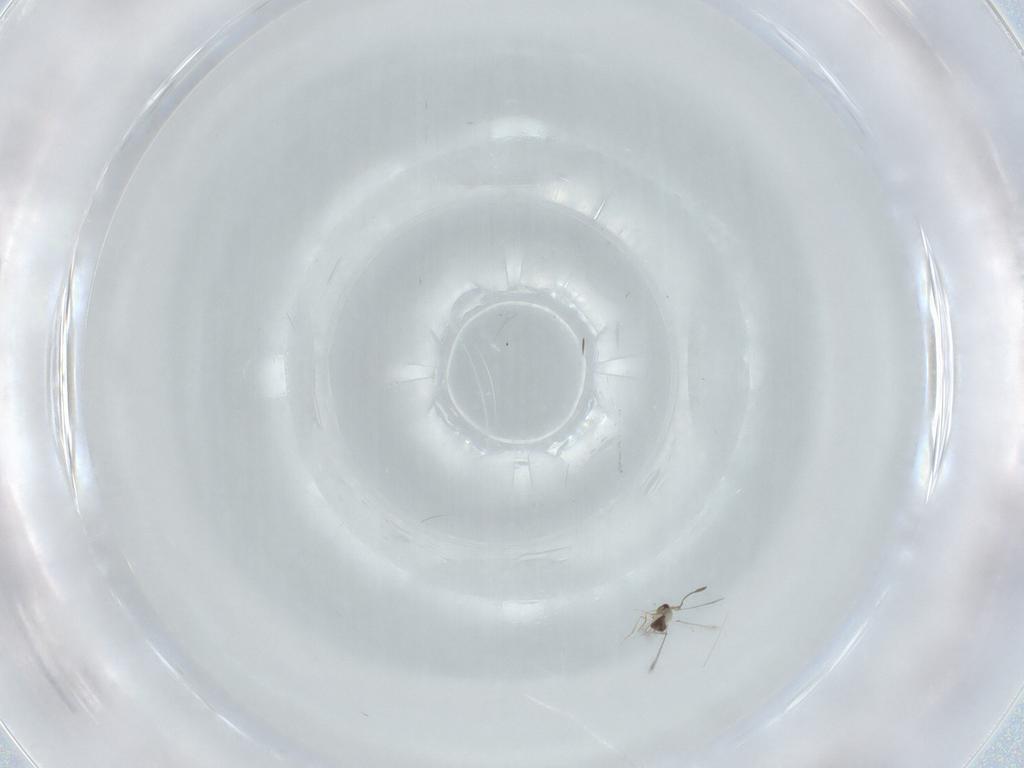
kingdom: Animalia
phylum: Arthropoda
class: Insecta
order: Hymenoptera
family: Mymaridae
